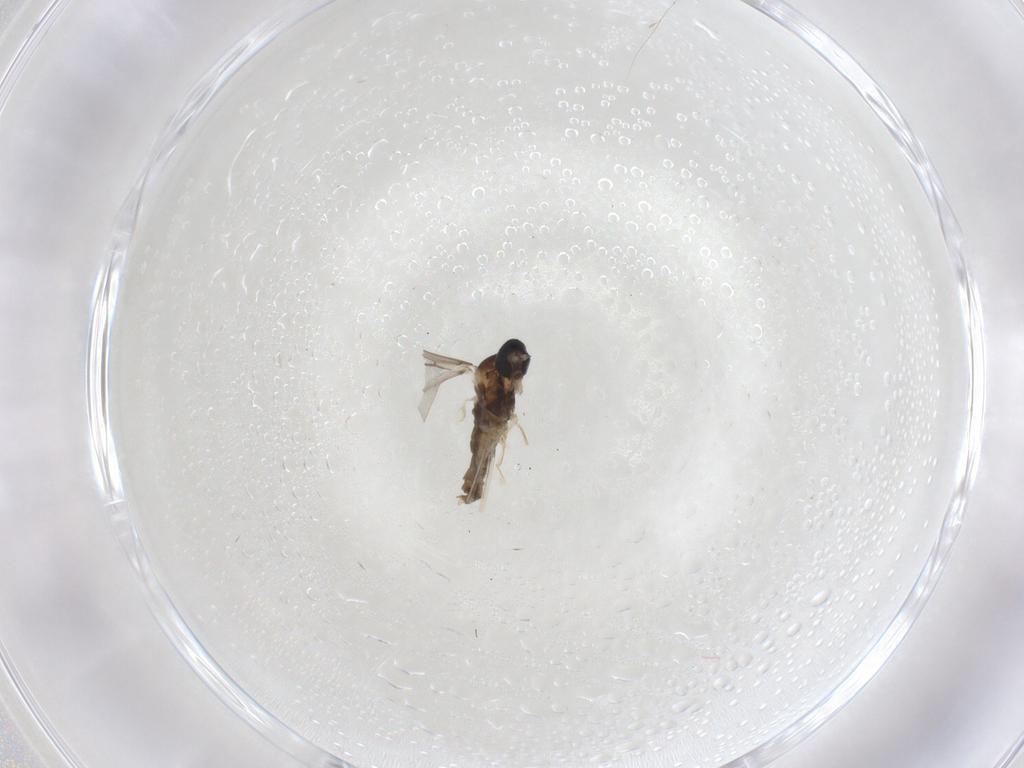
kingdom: Animalia
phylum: Arthropoda
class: Insecta
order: Diptera
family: Cecidomyiidae
